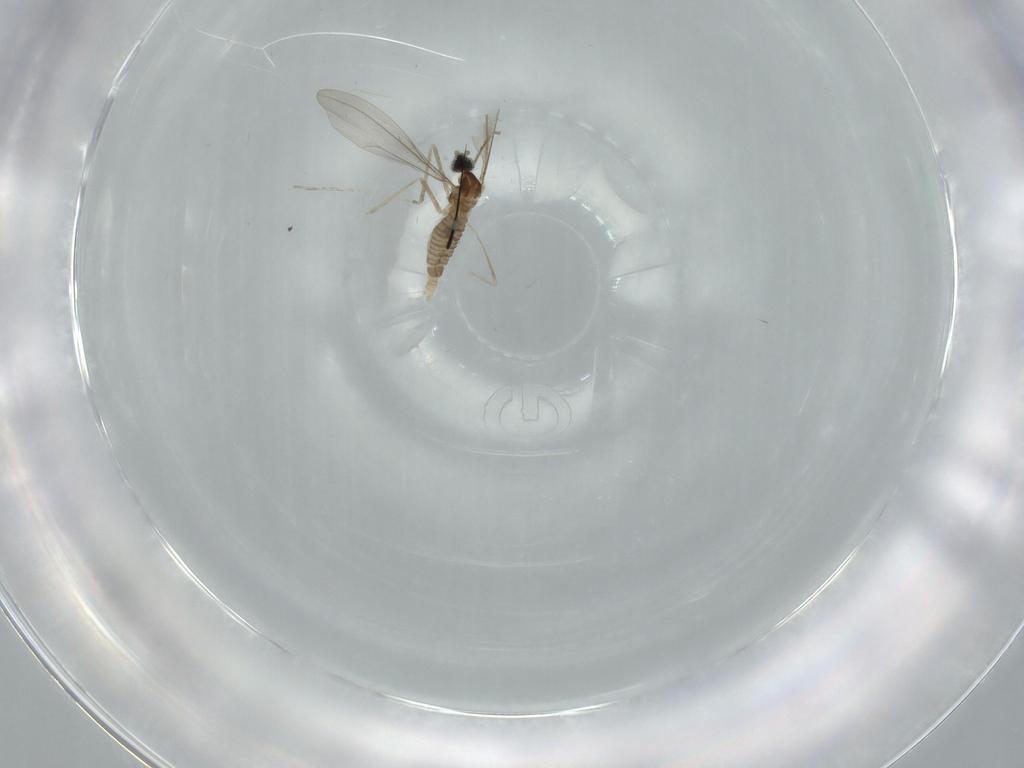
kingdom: Animalia
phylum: Arthropoda
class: Insecta
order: Diptera
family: Cecidomyiidae
